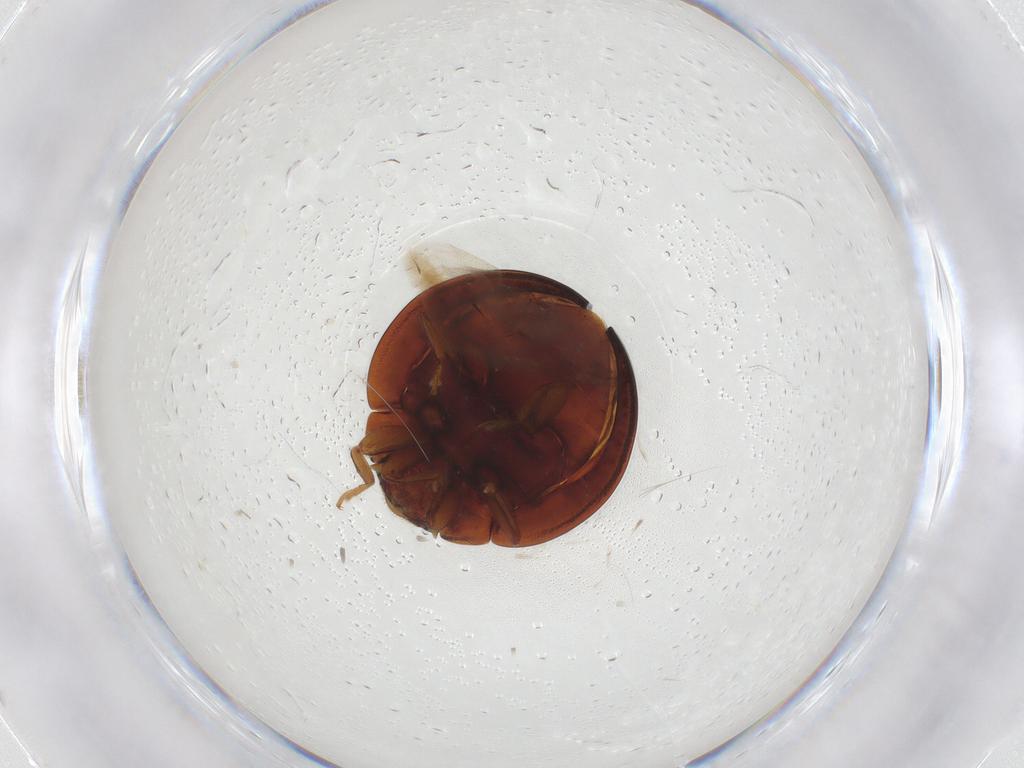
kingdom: Animalia
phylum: Arthropoda
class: Insecta
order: Coleoptera
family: Coccinellidae
